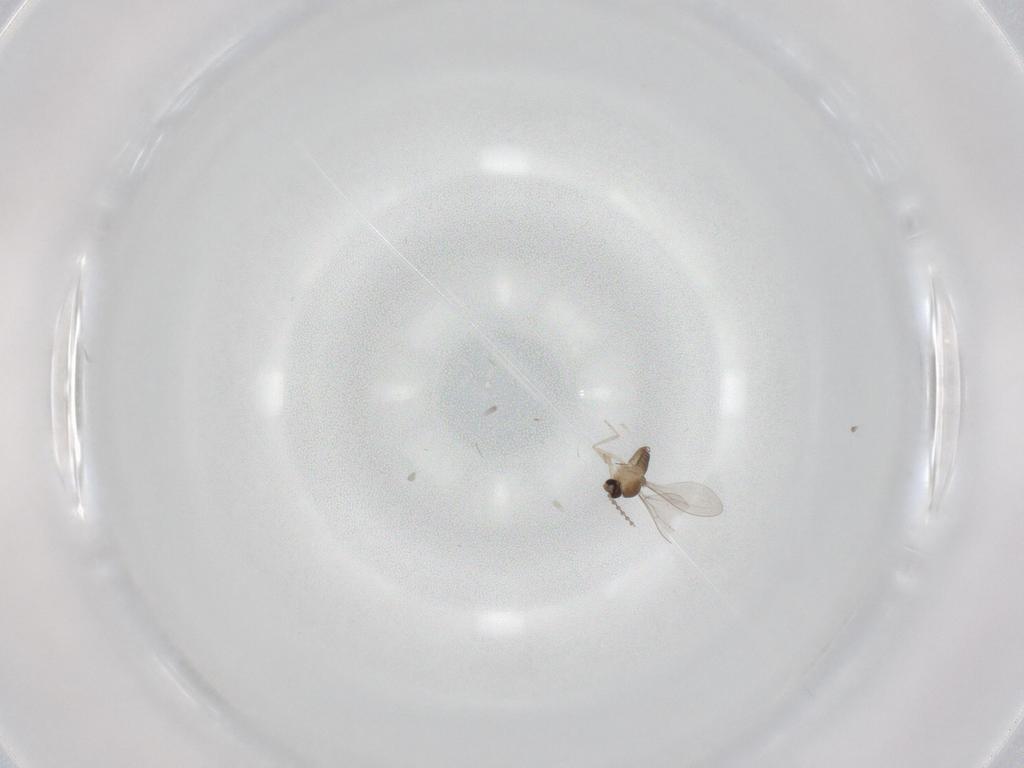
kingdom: Animalia
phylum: Arthropoda
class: Insecta
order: Diptera
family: Cecidomyiidae
